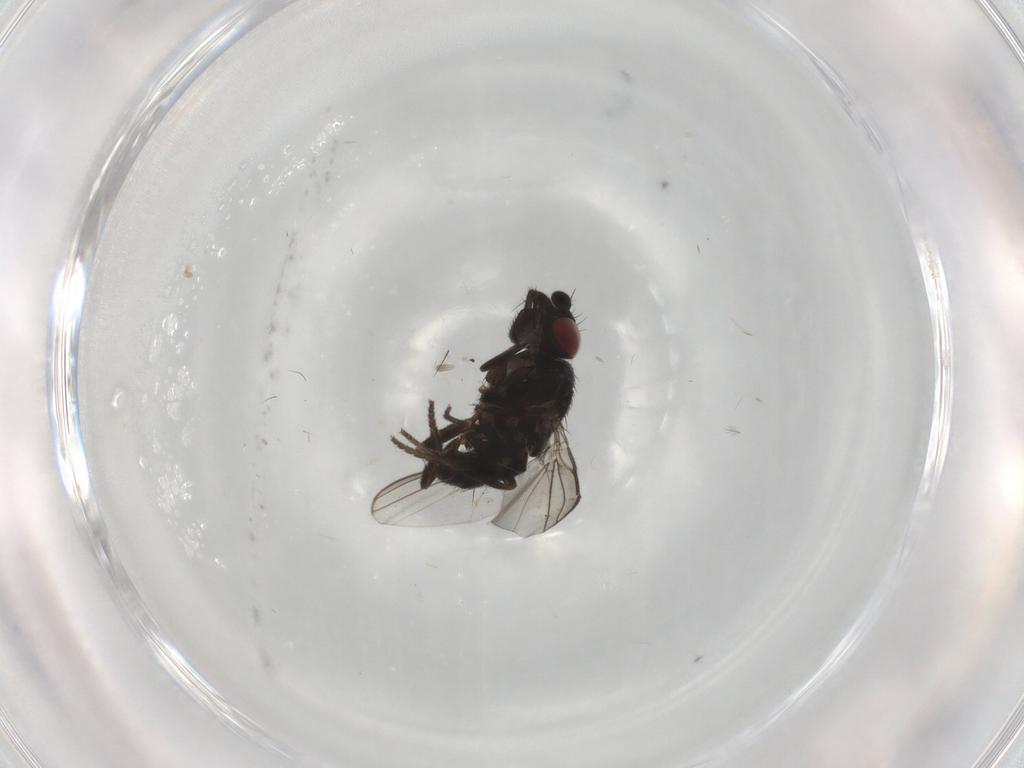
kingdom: Animalia
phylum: Arthropoda
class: Insecta
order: Diptera
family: Milichiidae
